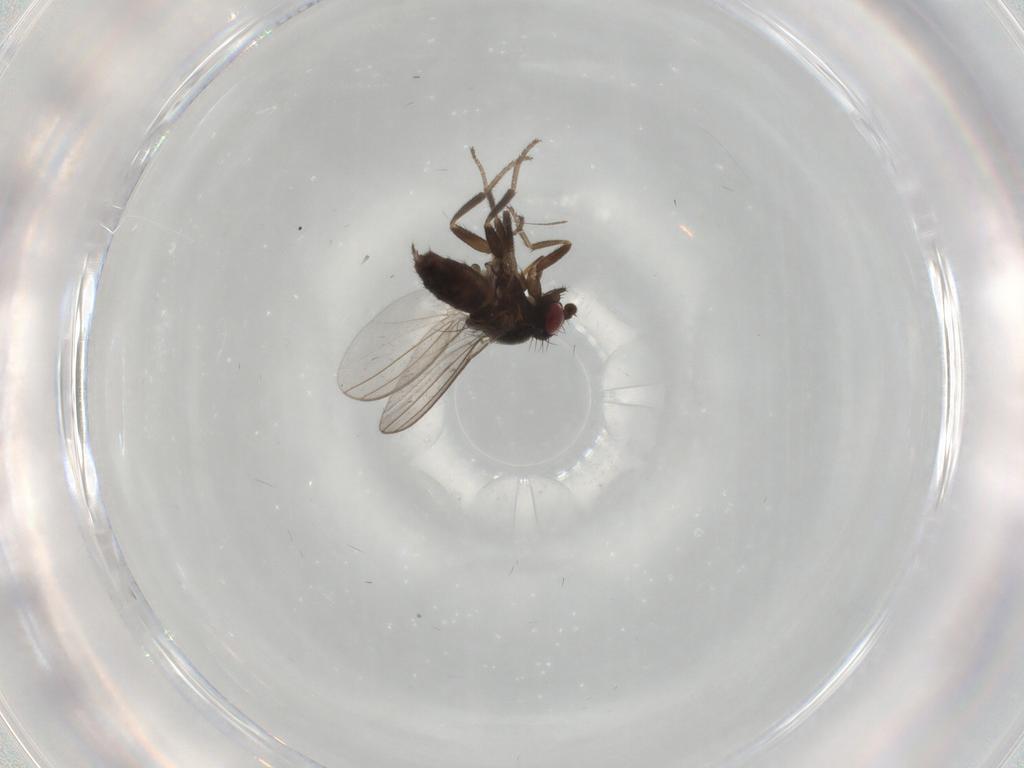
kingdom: Animalia
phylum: Arthropoda
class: Insecta
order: Diptera
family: Milichiidae
